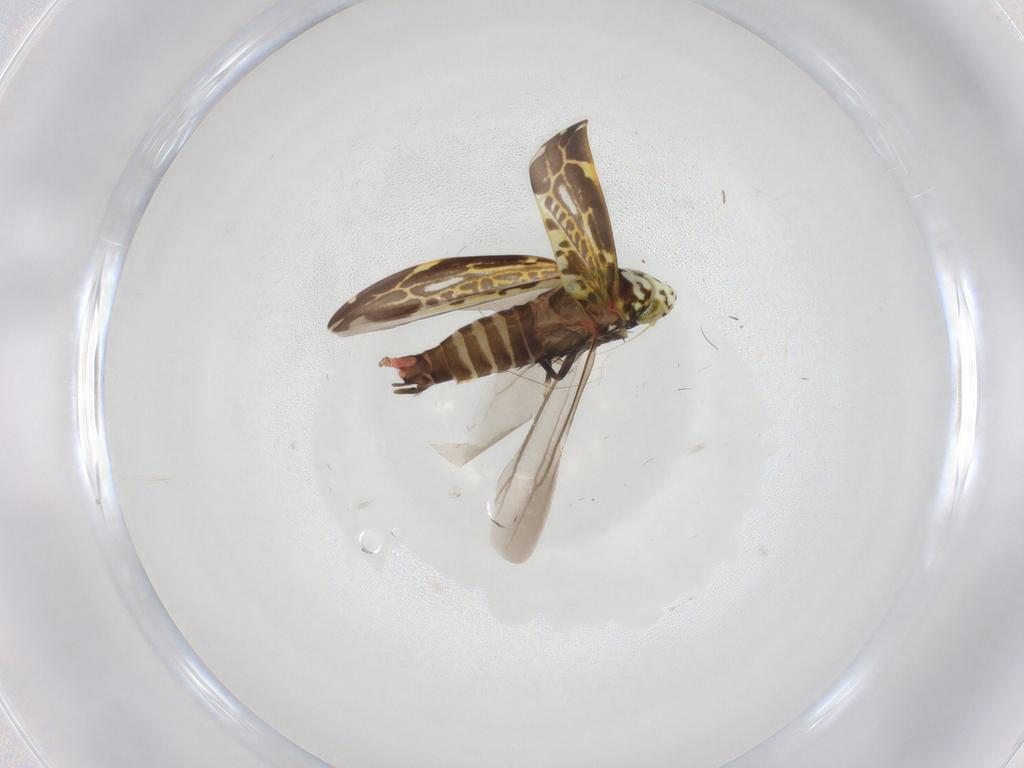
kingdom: Animalia
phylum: Arthropoda
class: Insecta
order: Hemiptera
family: Cicadellidae
